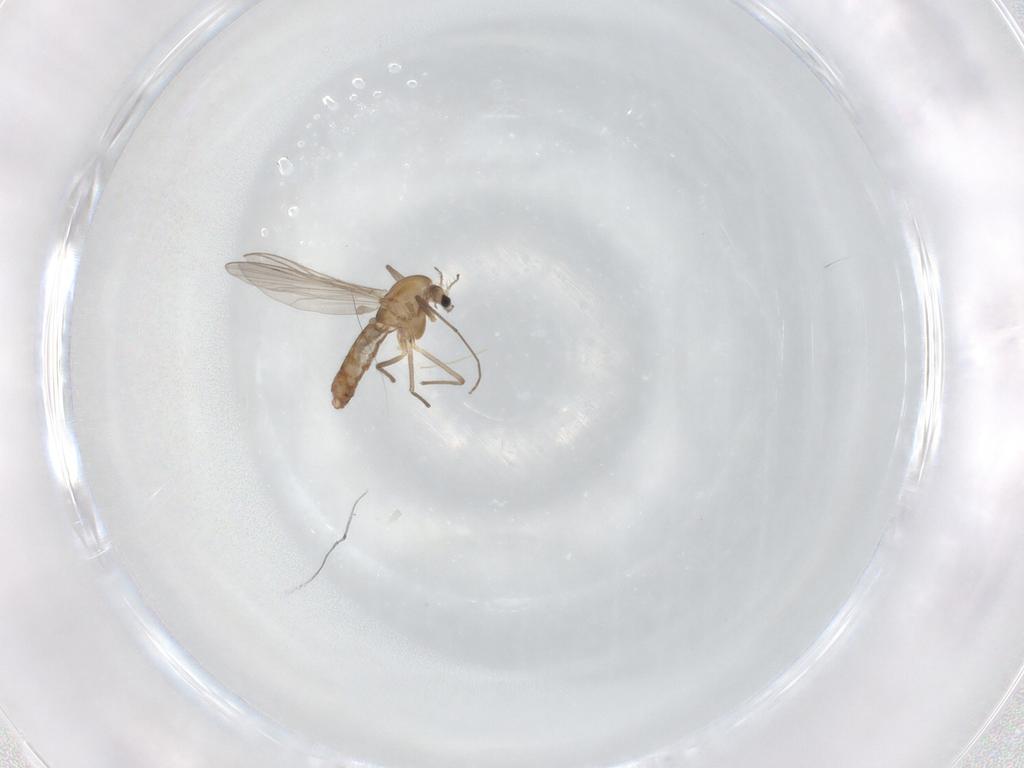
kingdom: Animalia
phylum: Arthropoda
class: Insecta
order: Diptera
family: Chironomidae
